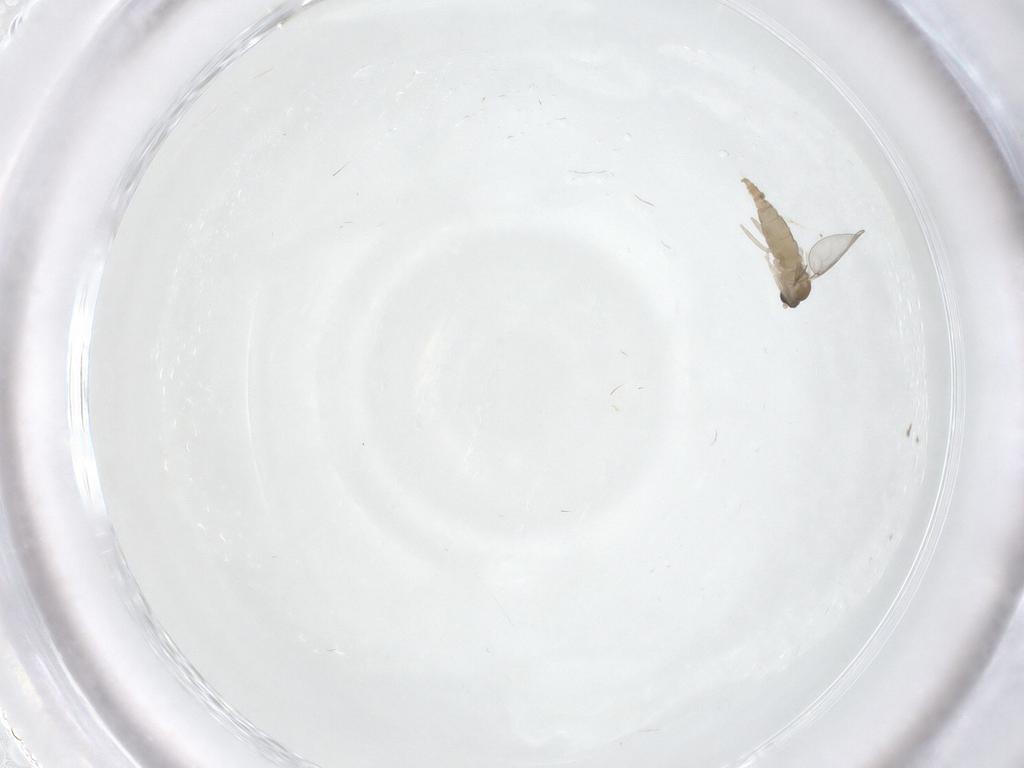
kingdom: Animalia
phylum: Arthropoda
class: Insecta
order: Diptera
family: Cecidomyiidae
